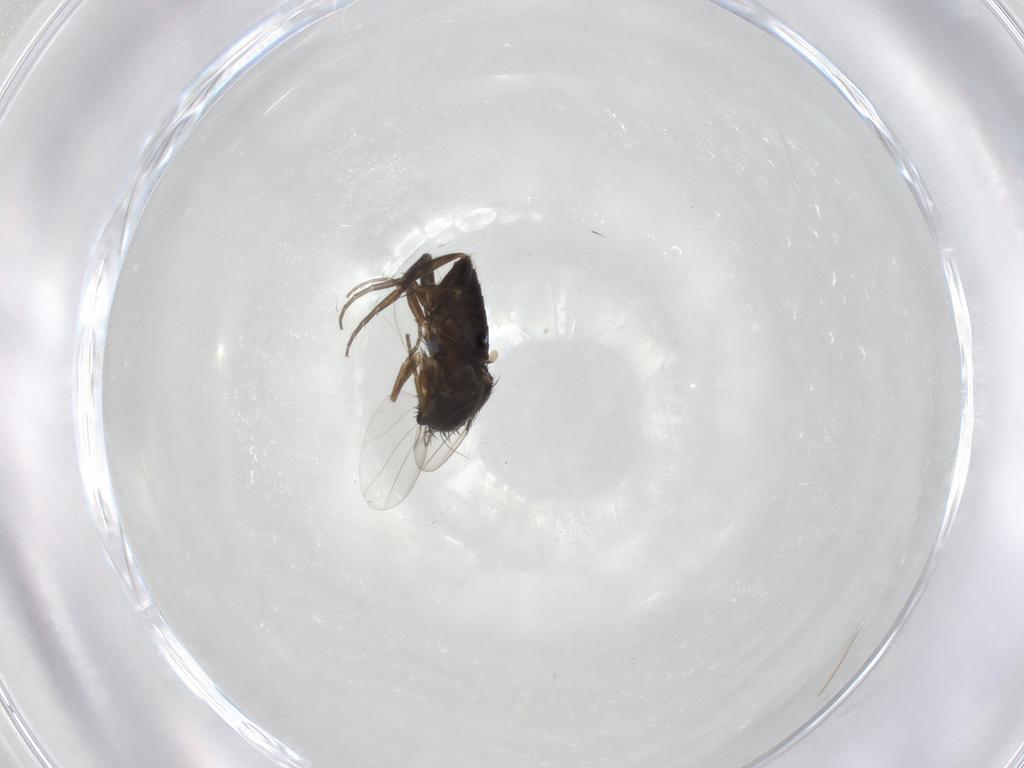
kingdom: Animalia
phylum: Arthropoda
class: Insecta
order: Diptera
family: Phoridae
